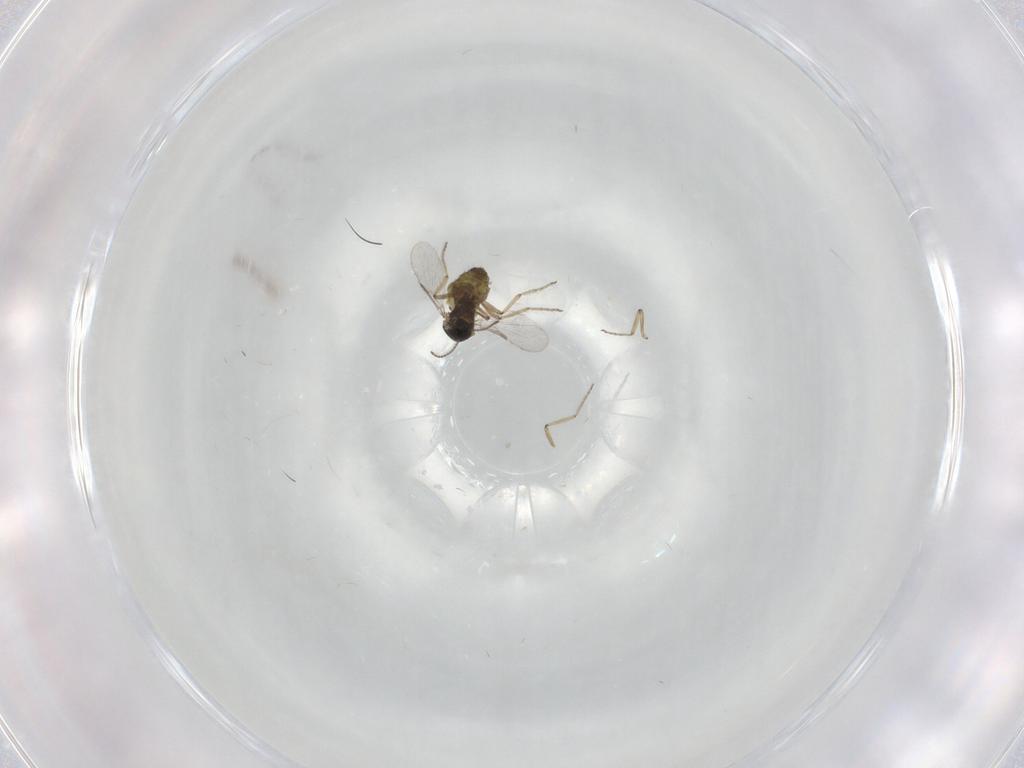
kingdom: Animalia
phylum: Arthropoda
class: Insecta
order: Diptera
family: Ceratopogonidae
